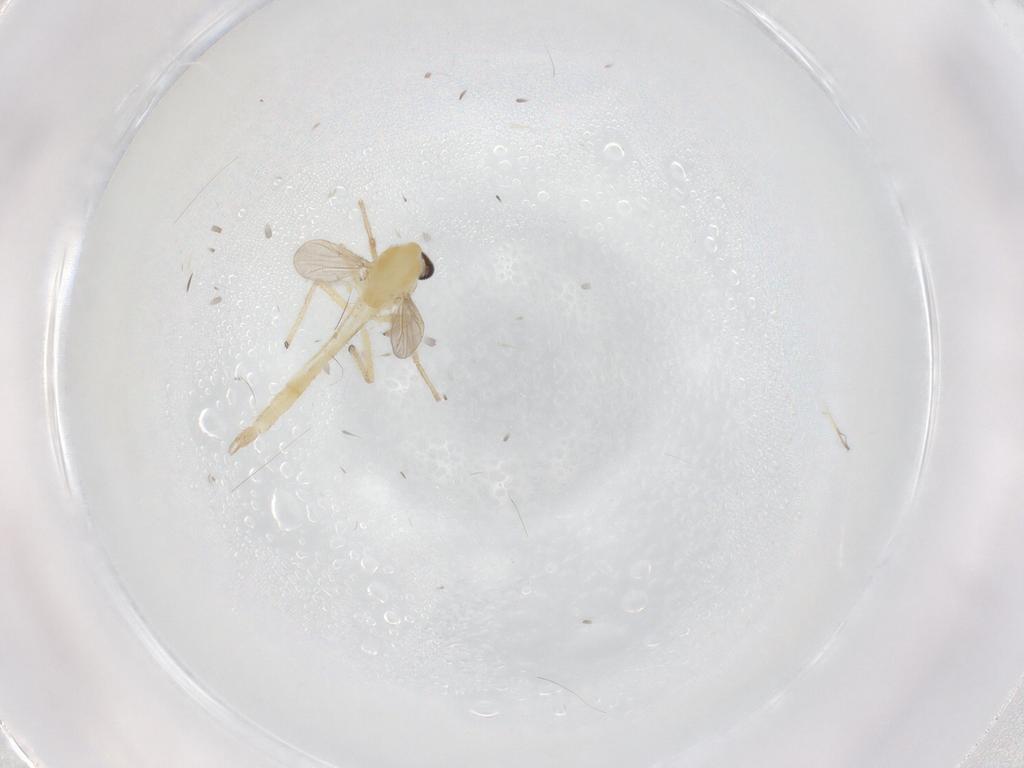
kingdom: Animalia
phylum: Arthropoda
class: Insecta
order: Diptera
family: Chironomidae
